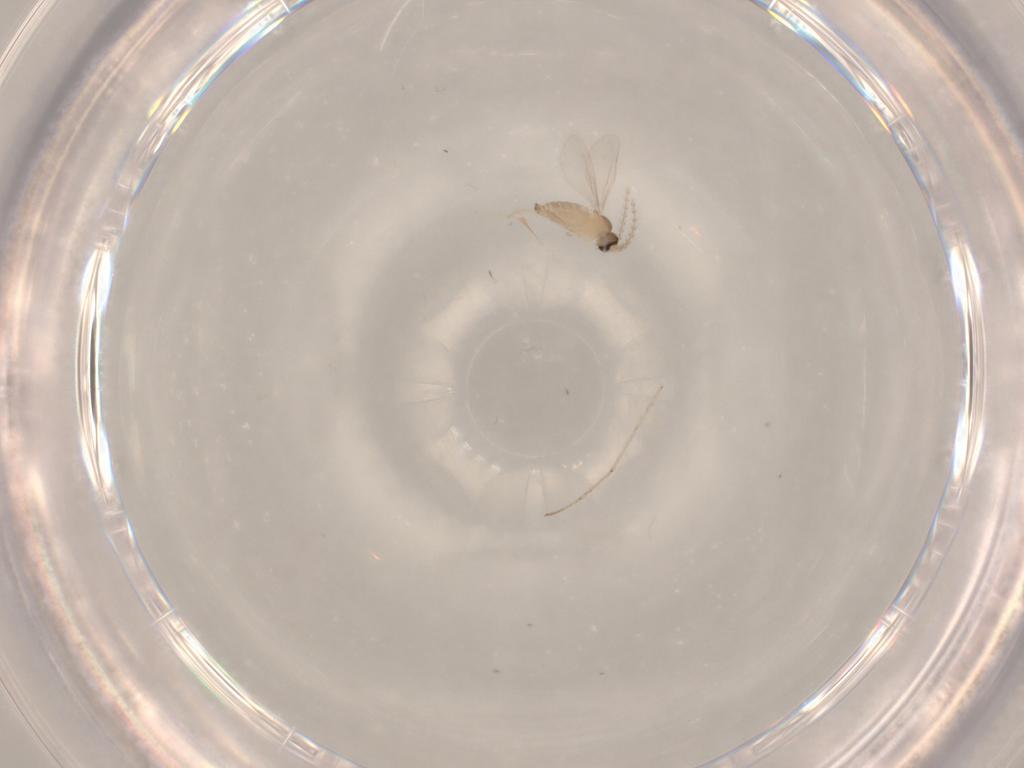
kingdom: Animalia
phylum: Arthropoda
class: Insecta
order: Diptera
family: Cecidomyiidae
